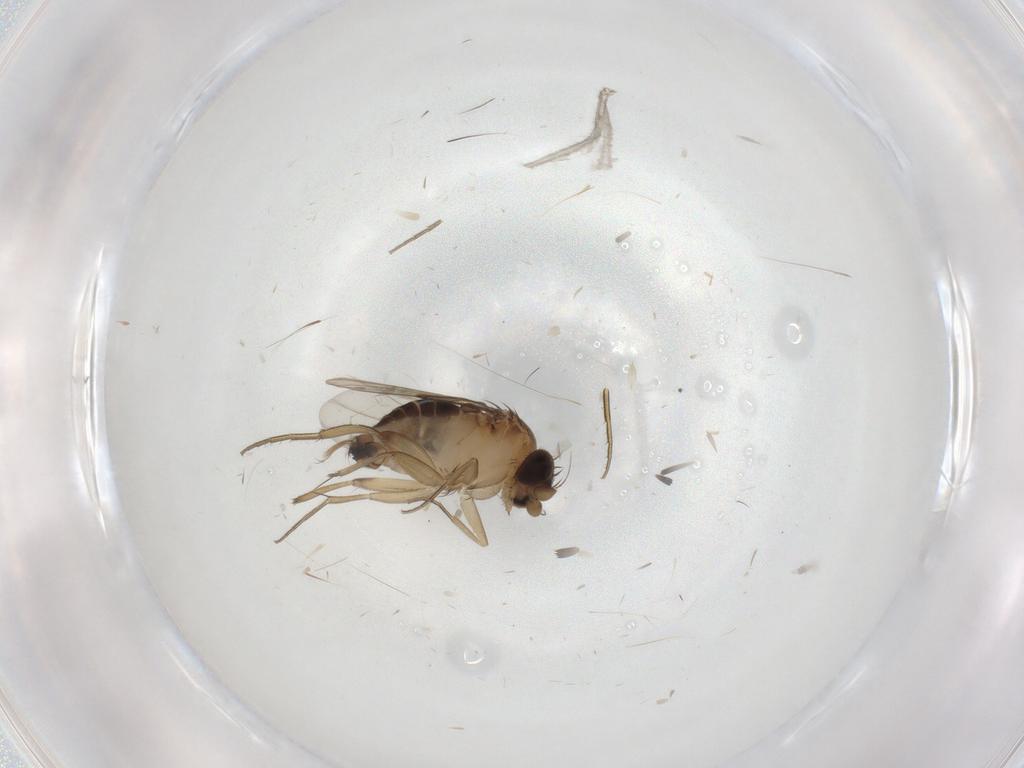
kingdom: Animalia
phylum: Arthropoda
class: Insecta
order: Diptera
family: Phoridae
